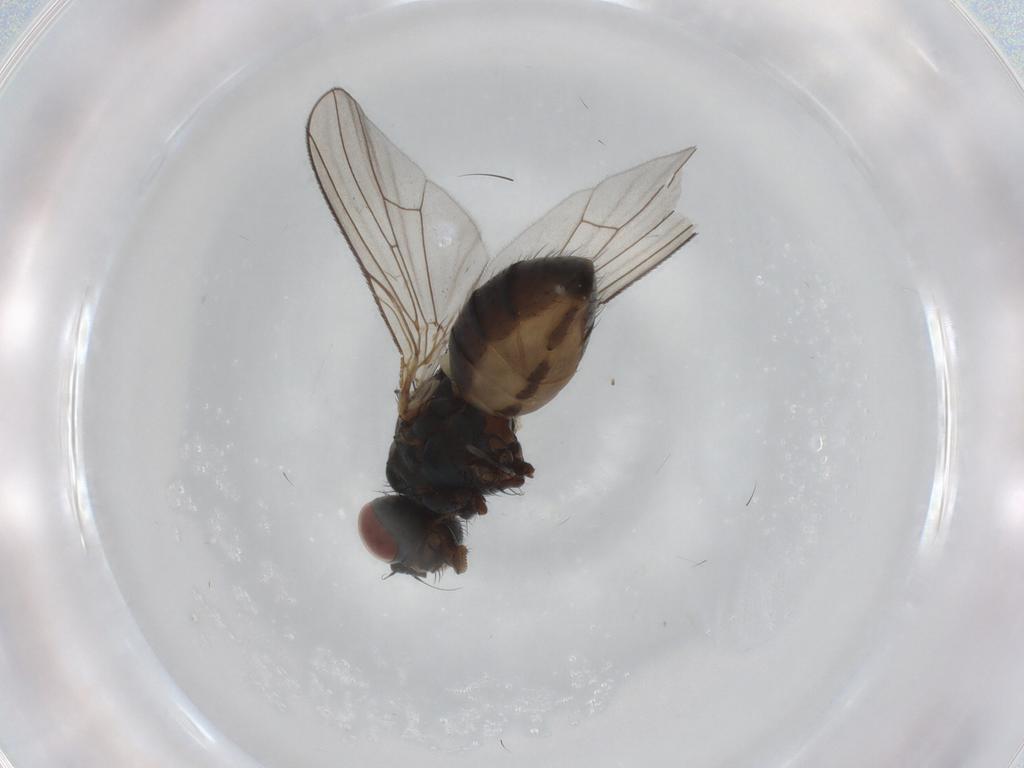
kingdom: Animalia
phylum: Arthropoda
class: Insecta
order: Diptera
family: Muscidae
